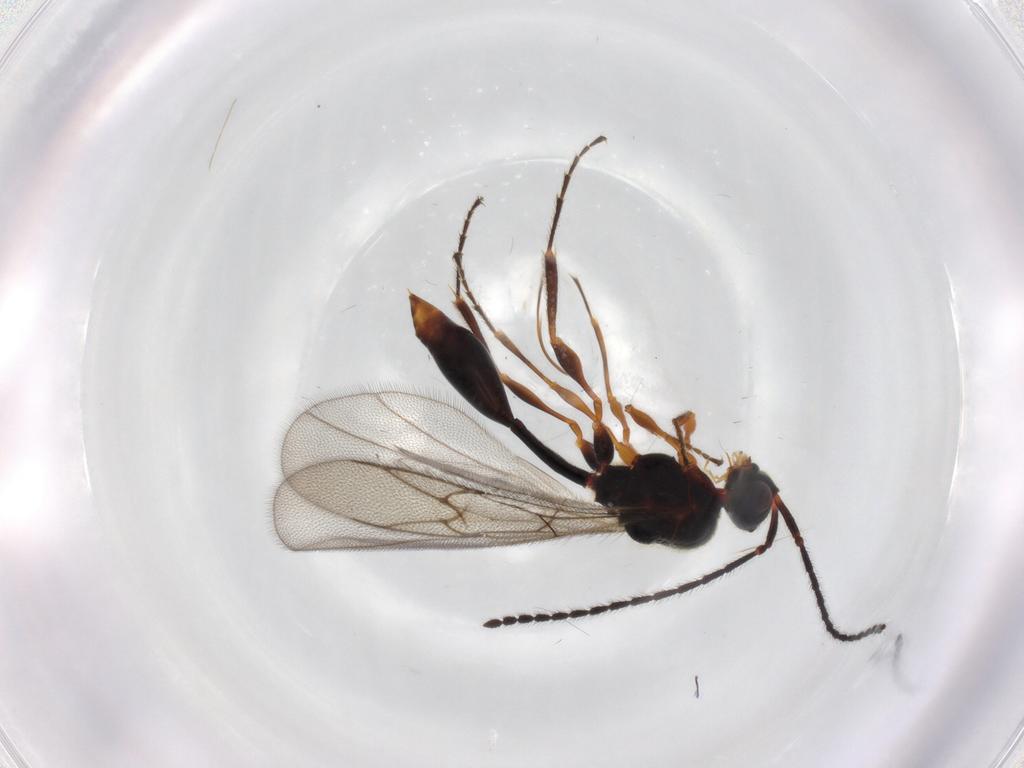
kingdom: Animalia
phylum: Arthropoda
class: Insecta
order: Hymenoptera
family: Diapriidae
